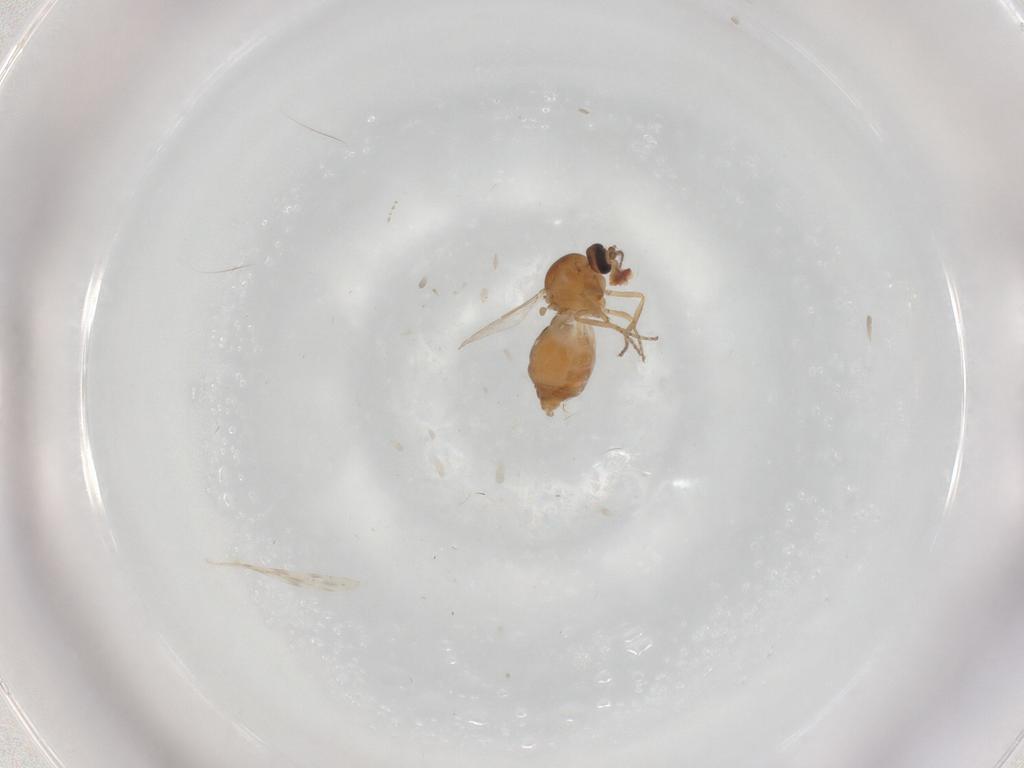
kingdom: Animalia
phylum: Arthropoda
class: Insecta
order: Diptera
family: Ceratopogonidae
